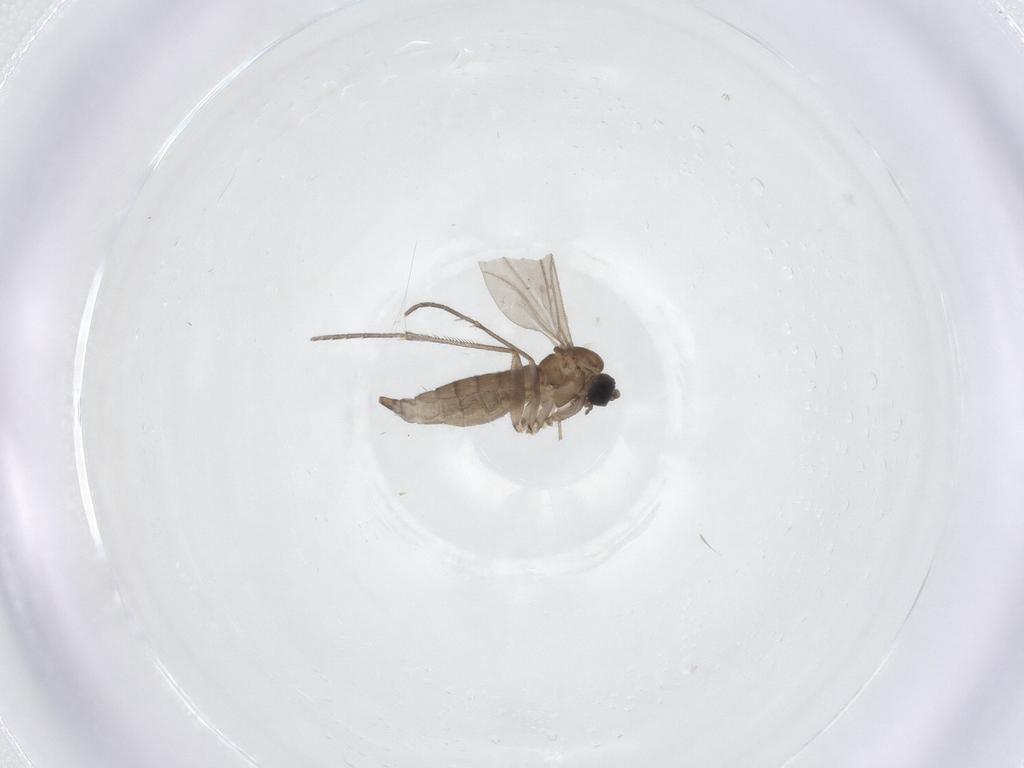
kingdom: Animalia
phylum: Arthropoda
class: Insecta
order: Diptera
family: Sciaridae
